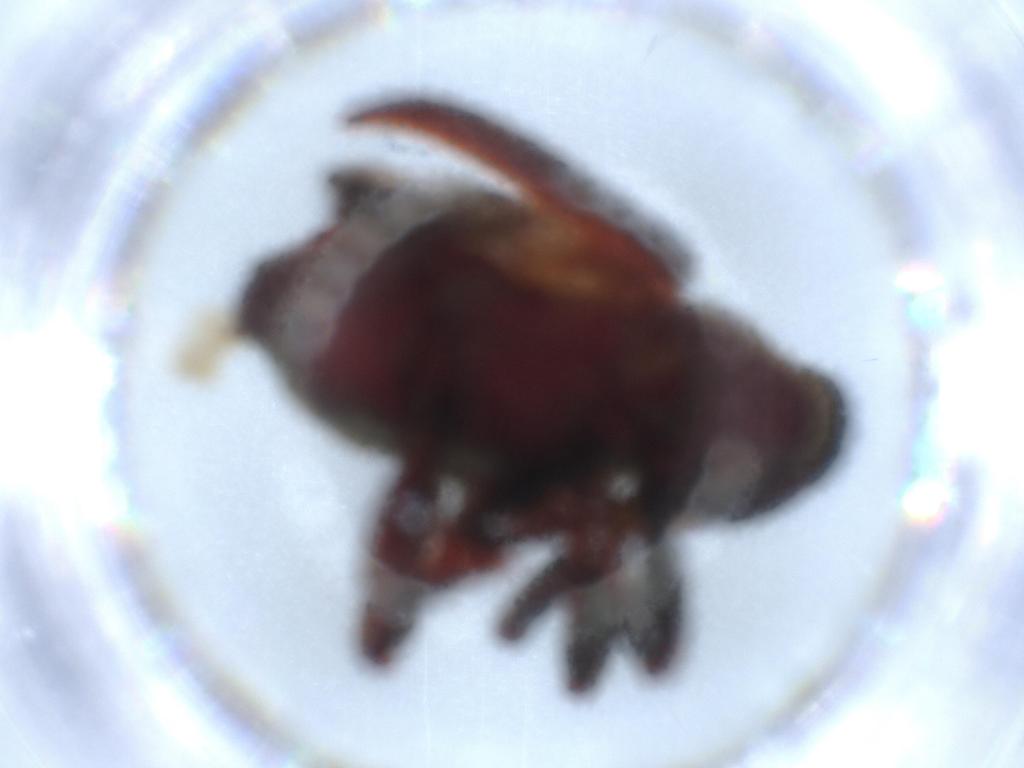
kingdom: Animalia
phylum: Arthropoda
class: Insecta
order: Coleoptera
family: Curculionidae
